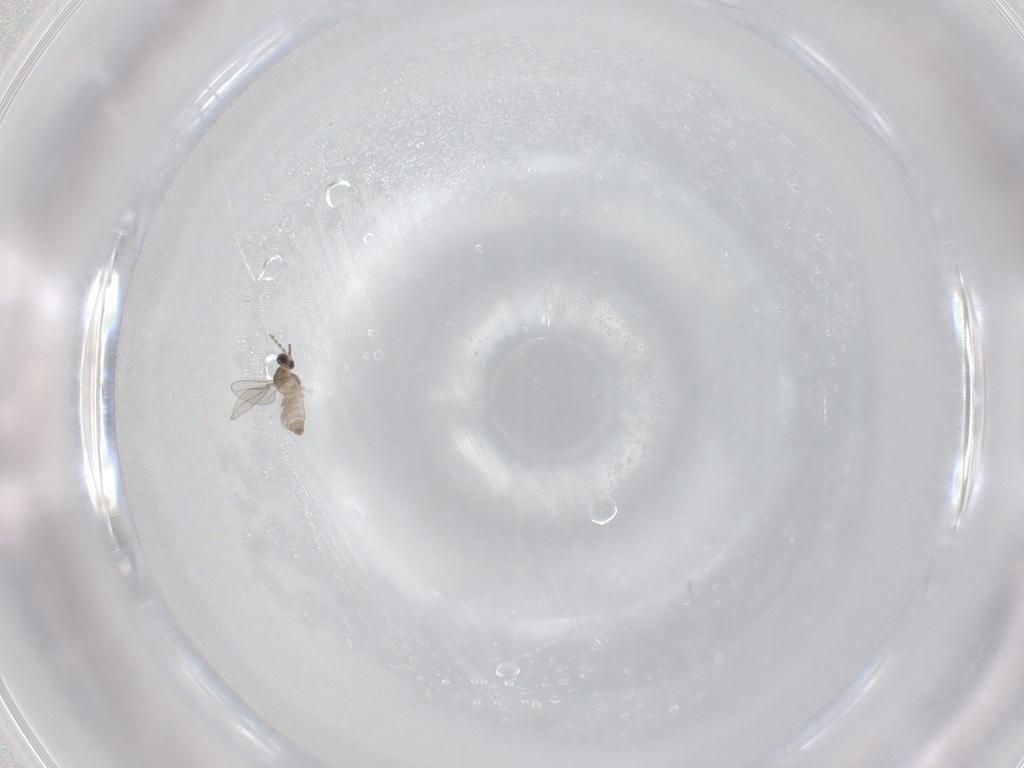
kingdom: Animalia
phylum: Arthropoda
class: Insecta
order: Diptera
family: Cecidomyiidae
